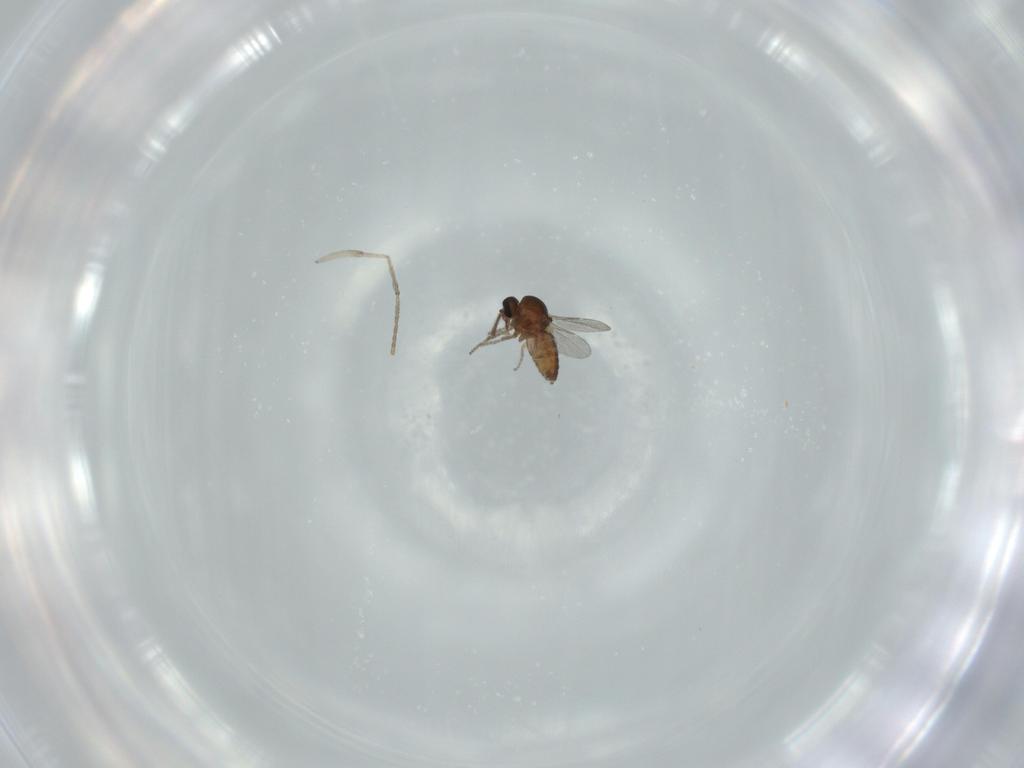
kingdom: Animalia
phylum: Arthropoda
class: Insecta
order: Diptera
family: Ceratopogonidae
